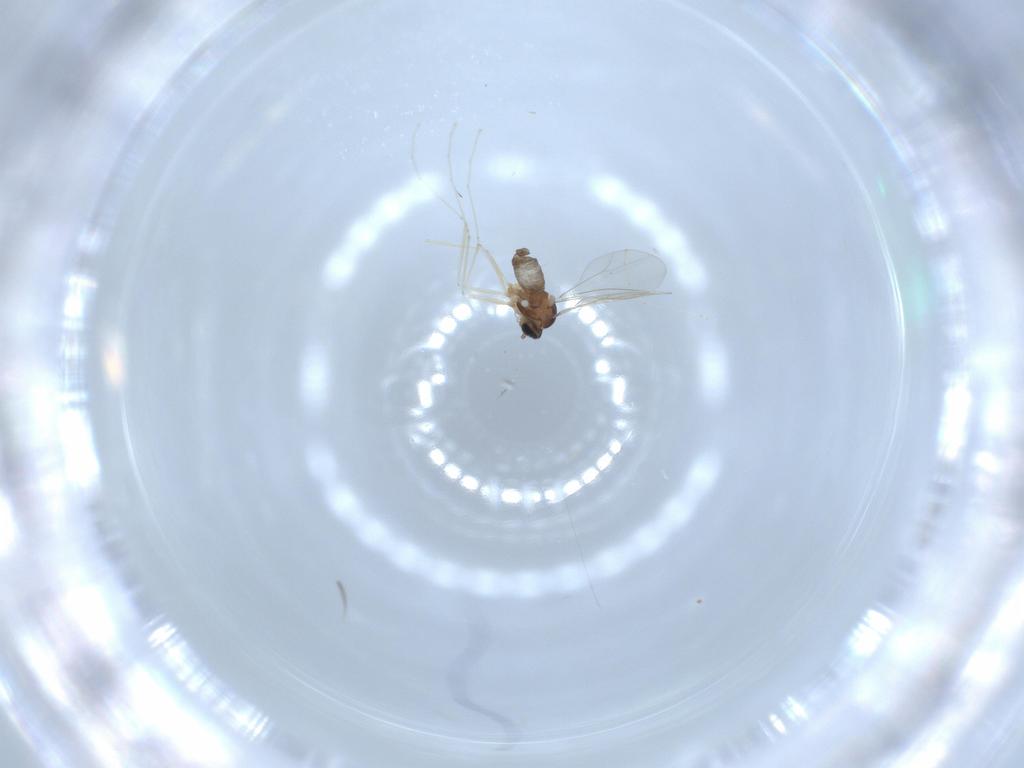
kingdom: Animalia
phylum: Arthropoda
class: Insecta
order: Diptera
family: Cecidomyiidae
